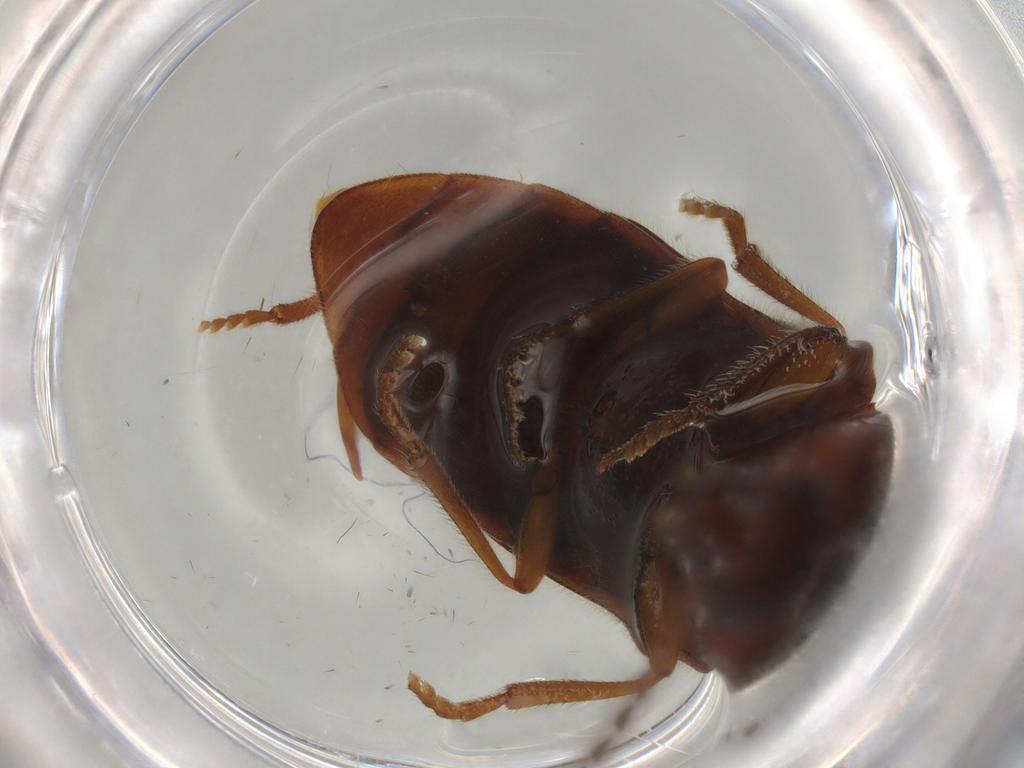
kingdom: Animalia
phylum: Arthropoda
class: Insecta
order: Coleoptera
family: Elateridae
